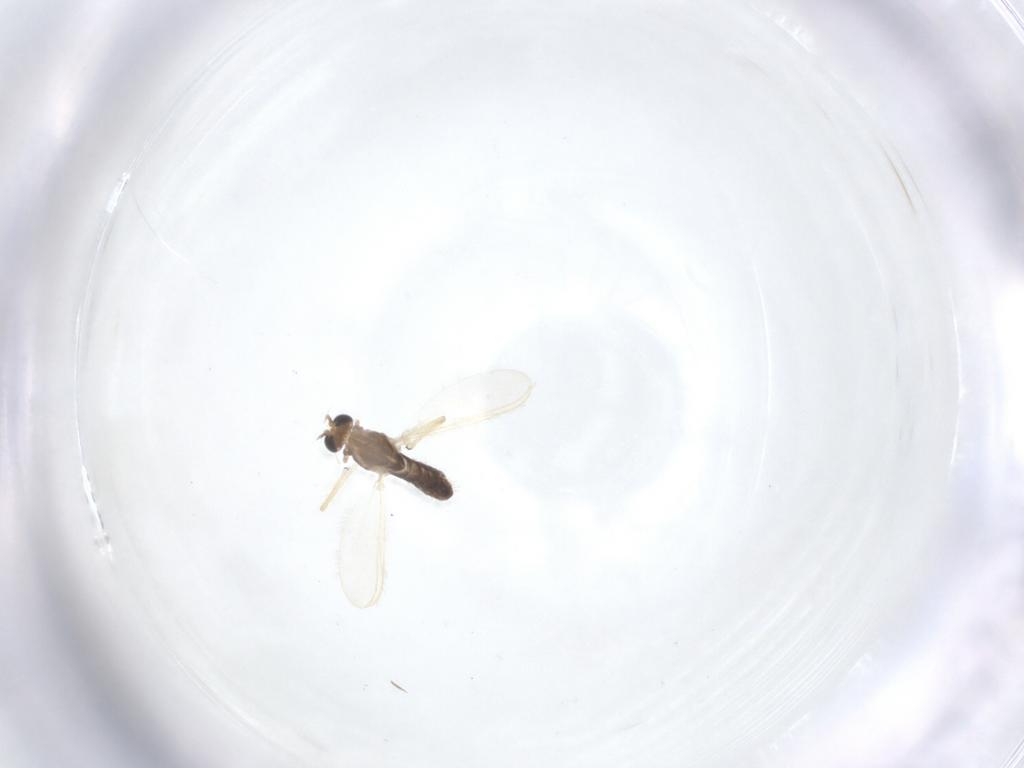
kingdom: Animalia
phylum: Arthropoda
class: Insecta
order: Diptera
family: Chironomidae
